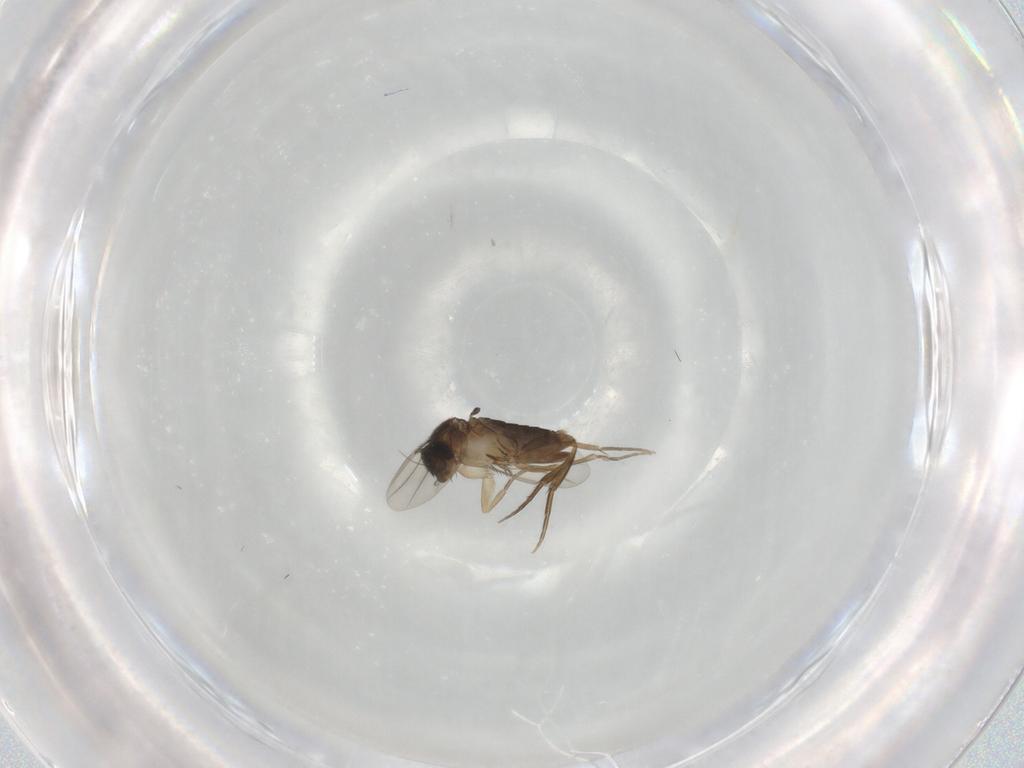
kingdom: Animalia
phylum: Arthropoda
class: Insecta
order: Diptera
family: Phoridae
